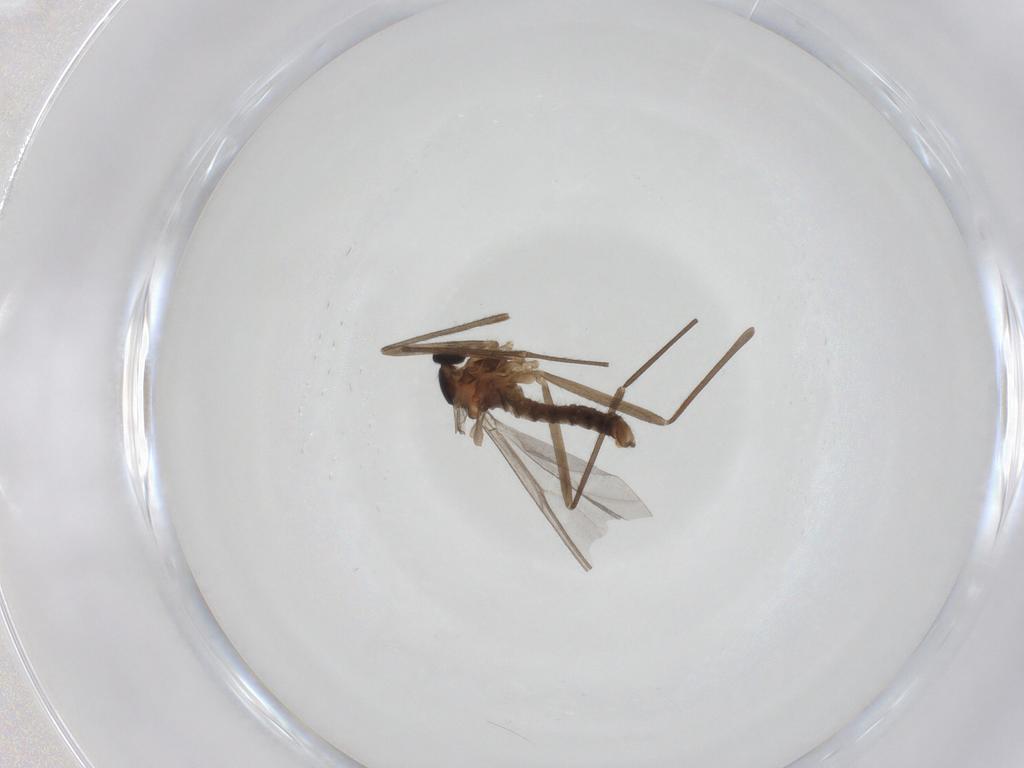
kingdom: Animalia
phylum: Arthropoda
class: Insecta
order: Diptera
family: Cecidomyiidae
